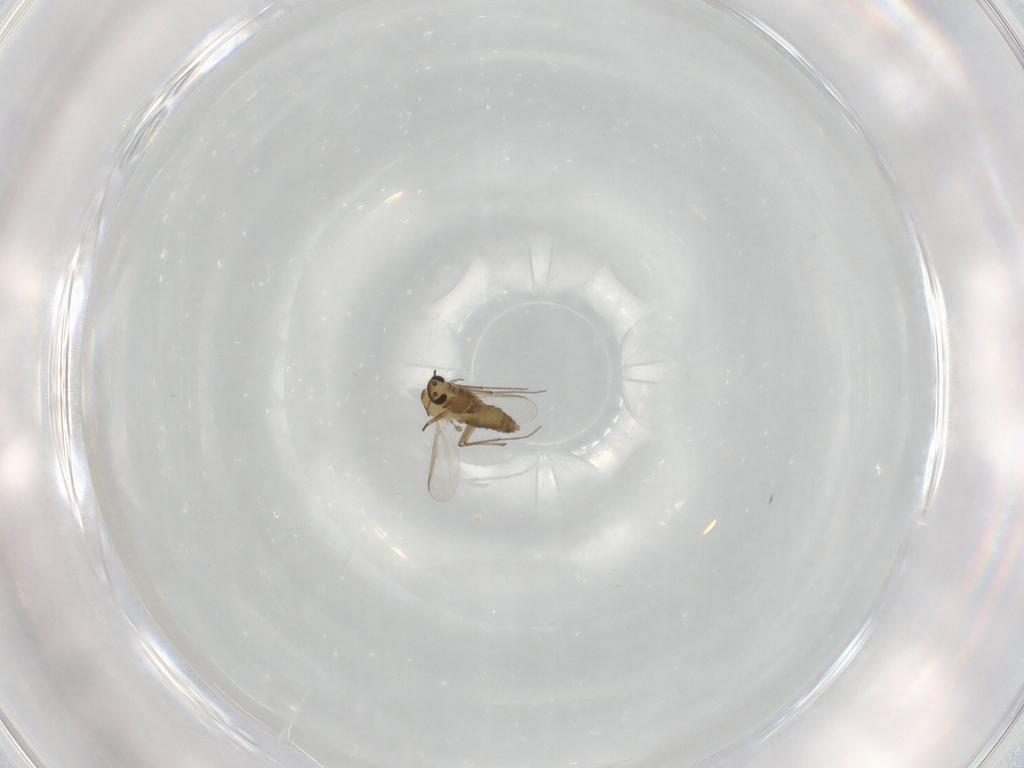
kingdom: Animalia
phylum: Arthropoda
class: Insecta
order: Diptera
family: Chironomidae
